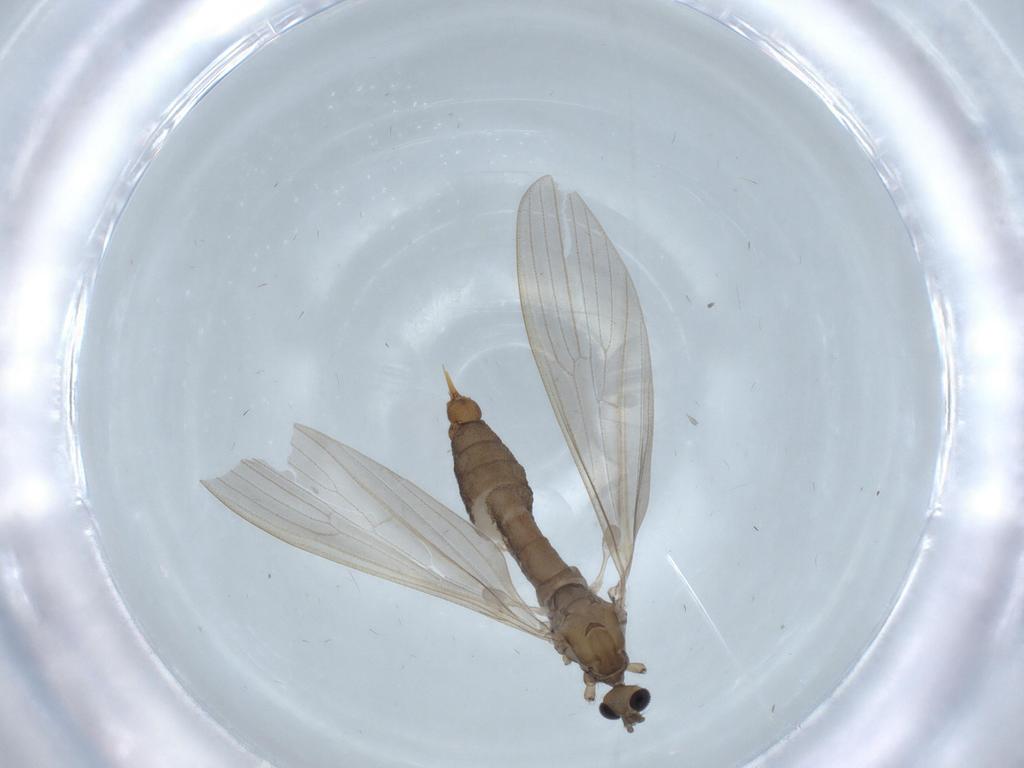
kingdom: Animalia
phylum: Arthropoda
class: Insecta
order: Diptera
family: Limoniidae
